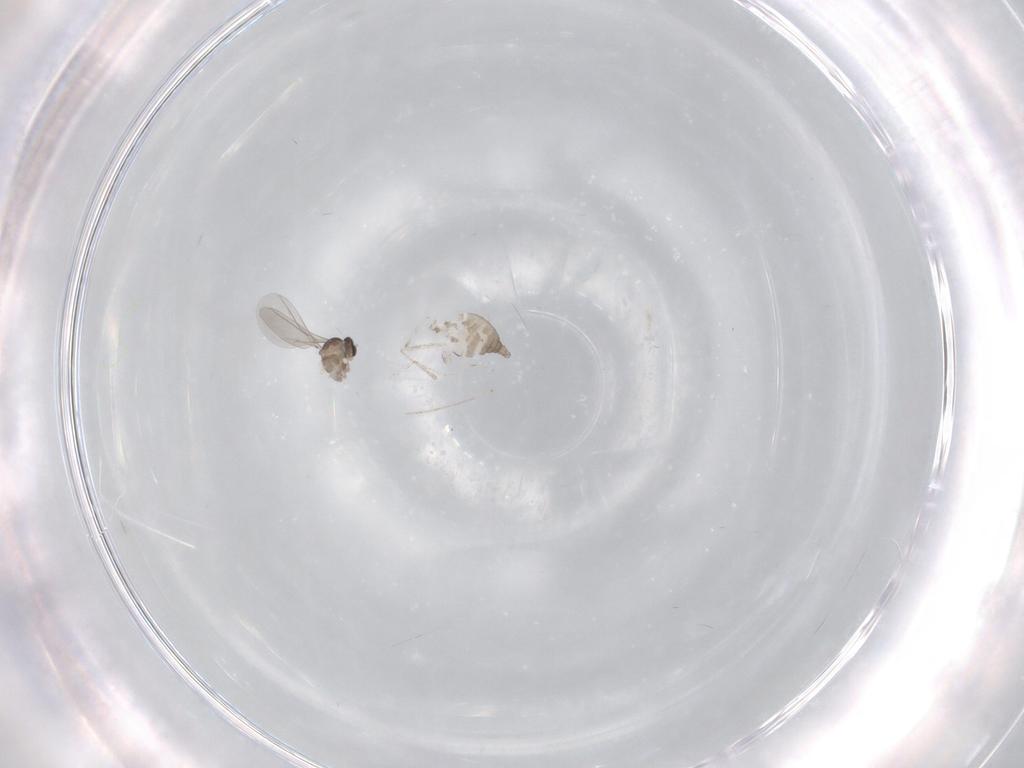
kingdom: Animalia
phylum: Arthropoda
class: Insecta
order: Diptera
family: Cecidomyiidae
